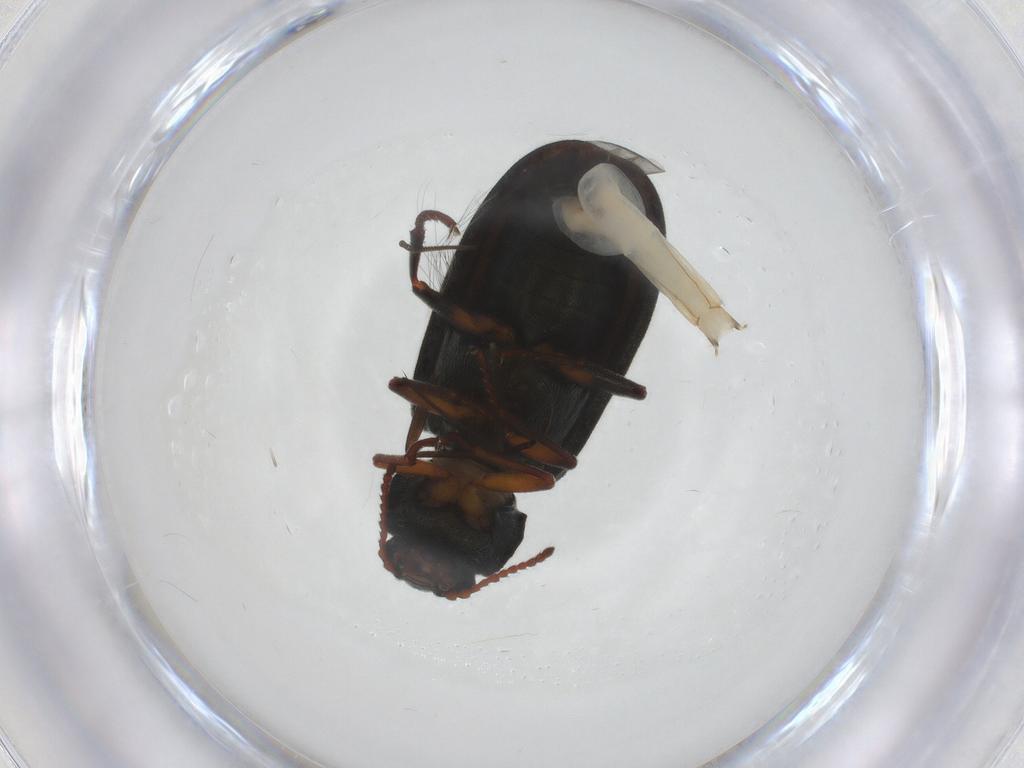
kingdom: Animalia
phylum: Arthropoda
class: Insecta
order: Coleoptera
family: Melyridae
